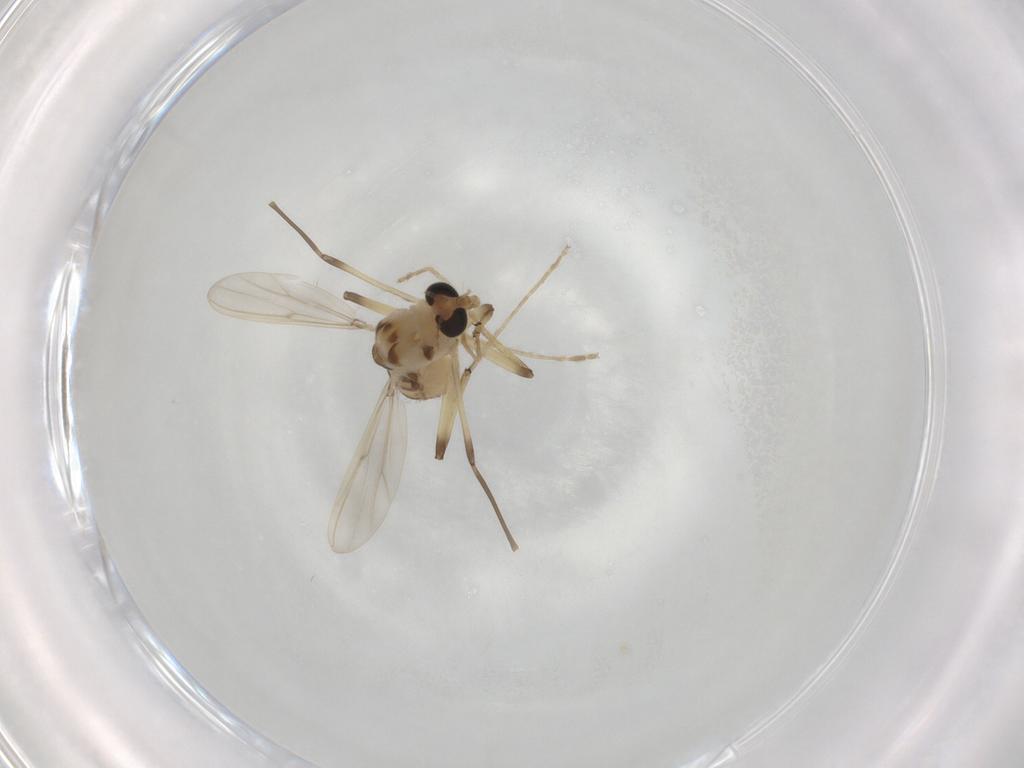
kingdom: Animalia
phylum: Arthropoda
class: Insecta
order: Diptera
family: Chironomidae
